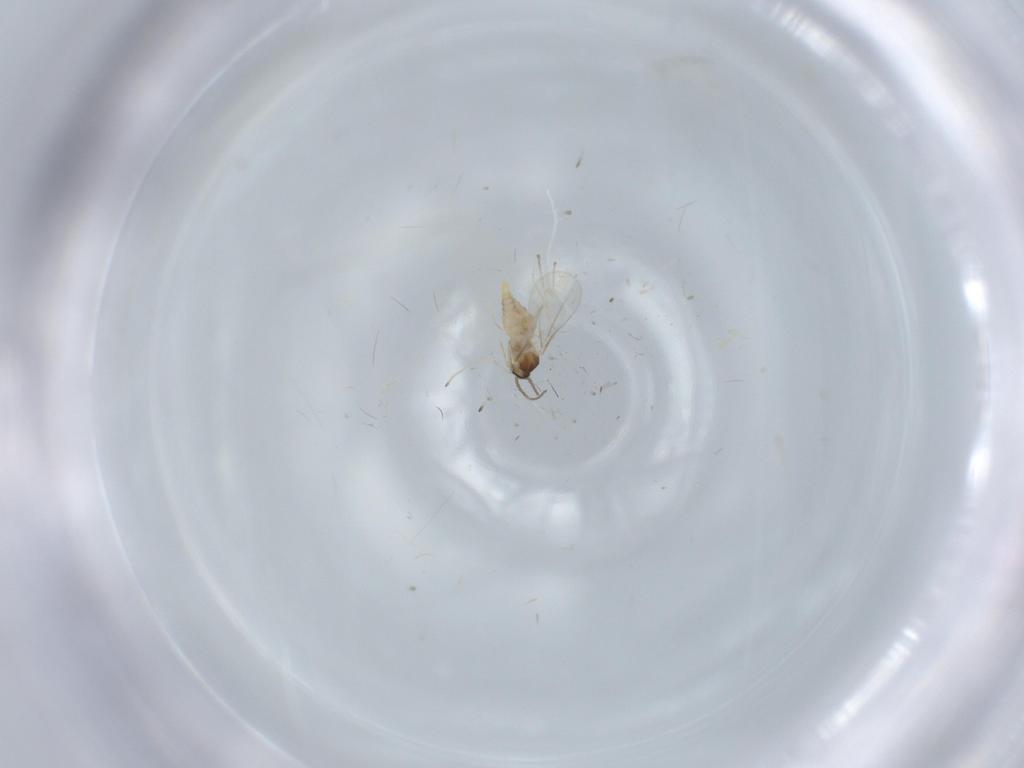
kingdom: Animalia
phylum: Arthropoda
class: Insecta
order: Diptera
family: Cecidomyiidae
